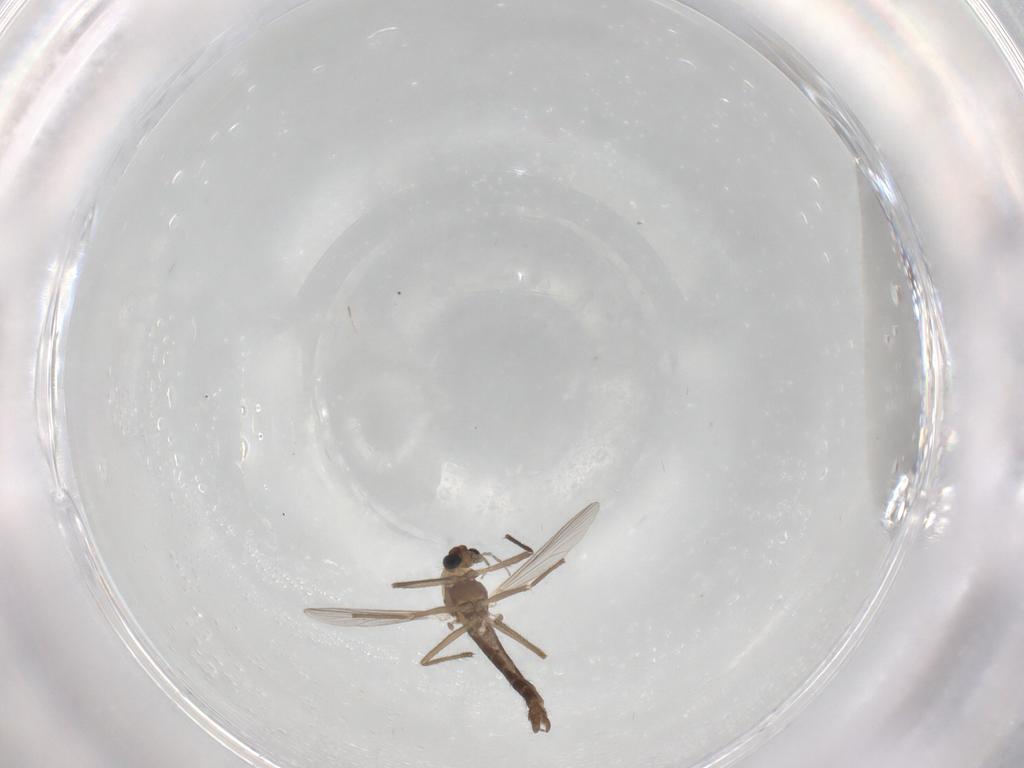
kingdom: Animalia
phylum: Arthropoda
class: Insecta
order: Diptera
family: Chironomidae
